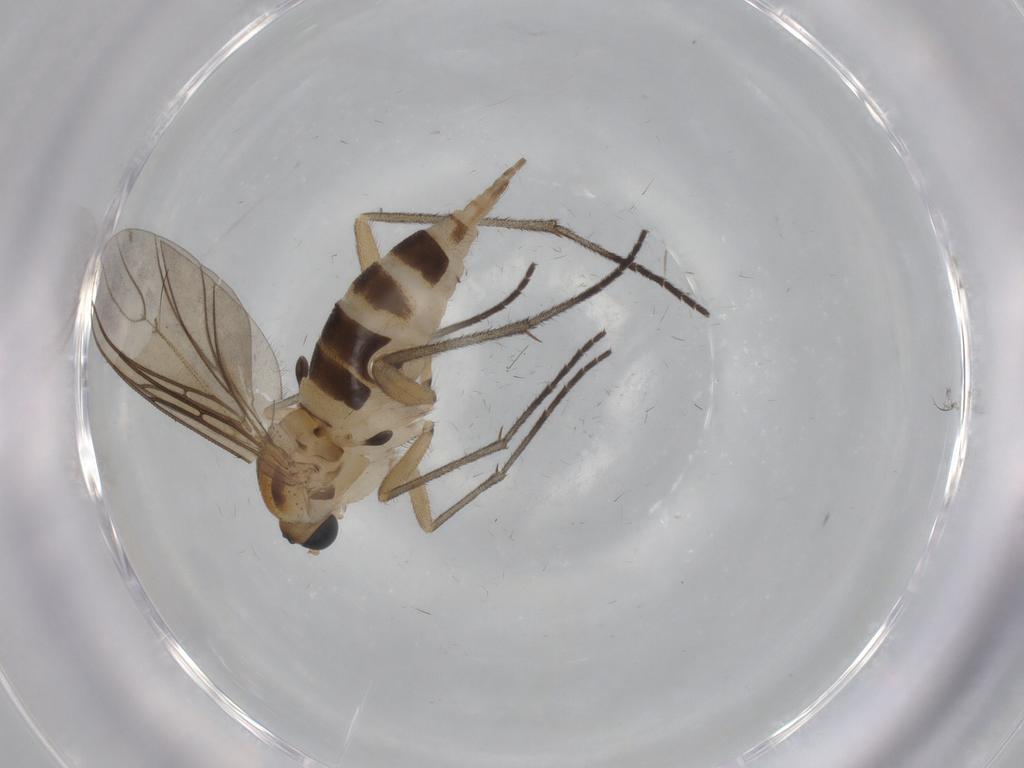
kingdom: Animalia
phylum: Arthropoda
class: Insecta
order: Diptera
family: Sciaridae
